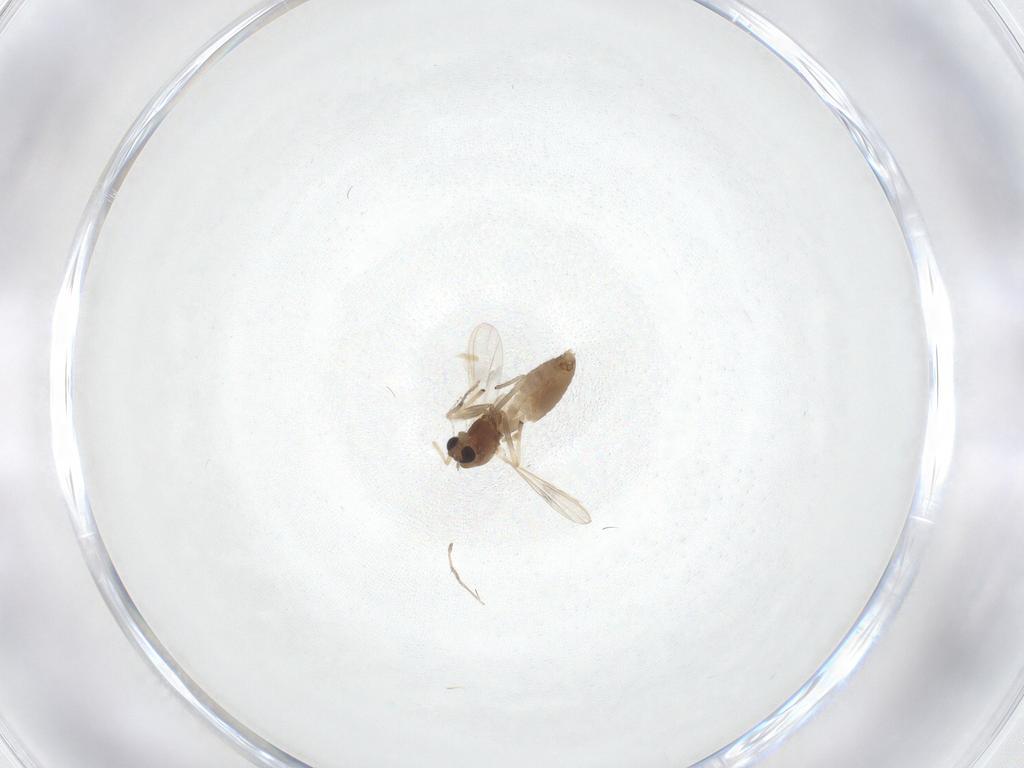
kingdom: Animalia
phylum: Arthropoda
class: Insecta
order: Diptera
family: Chironomidae
